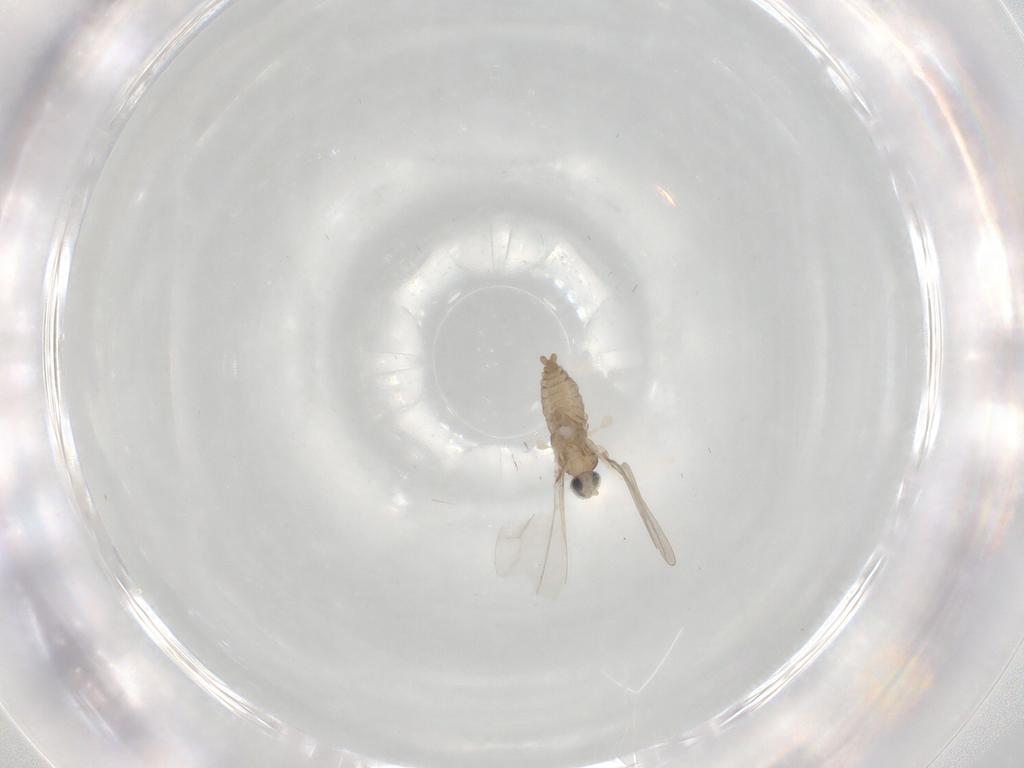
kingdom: Animalia
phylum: Arthropoda
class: Insecta
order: Diptera
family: Cecidomyiidae
